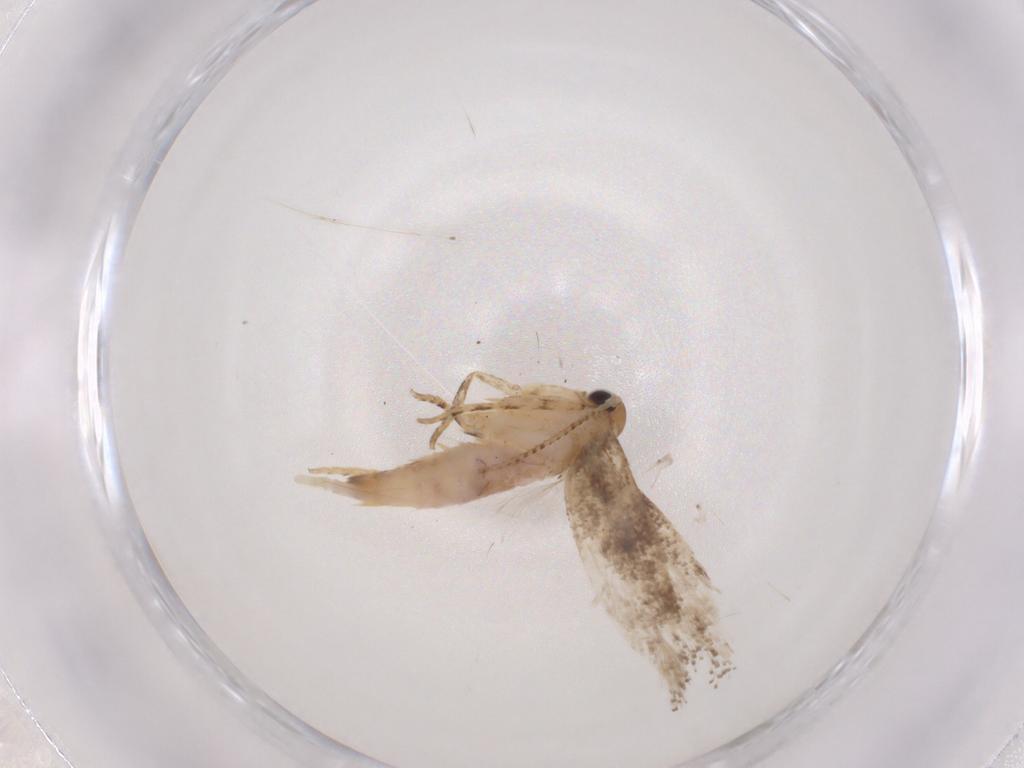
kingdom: Animalia
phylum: Arthropoda
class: Insecta
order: Lepidoptera
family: Gelechiidae
